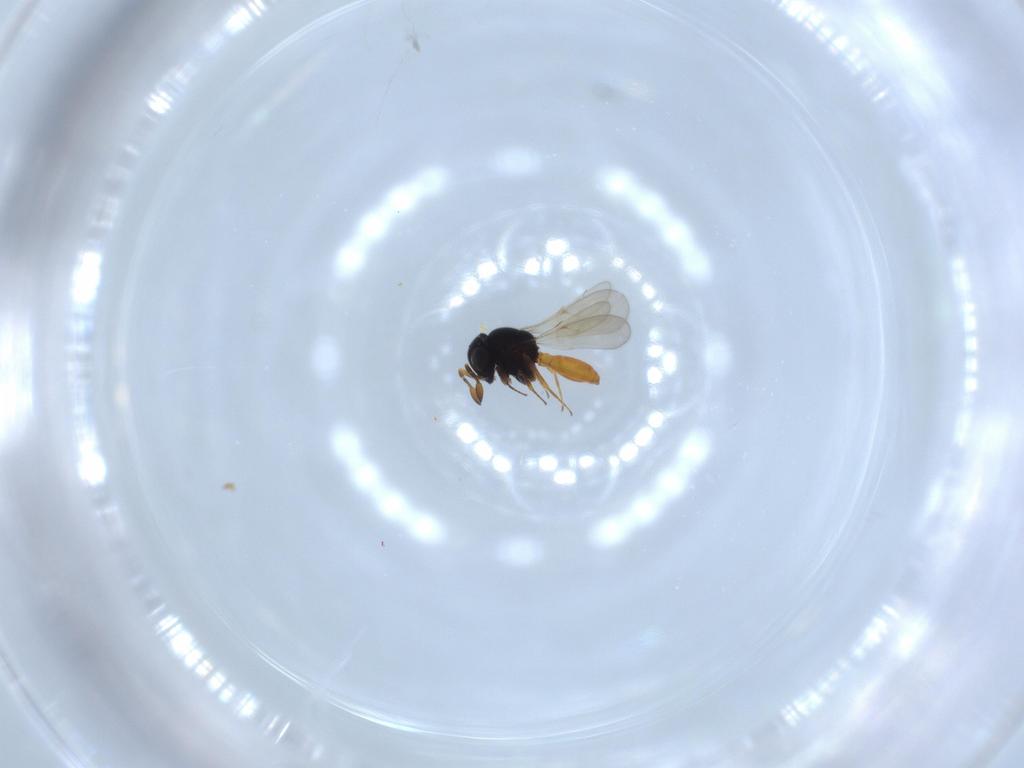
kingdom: Animalia
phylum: Arthropoda
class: Insecta
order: Hymenoptera
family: Scelionidae
